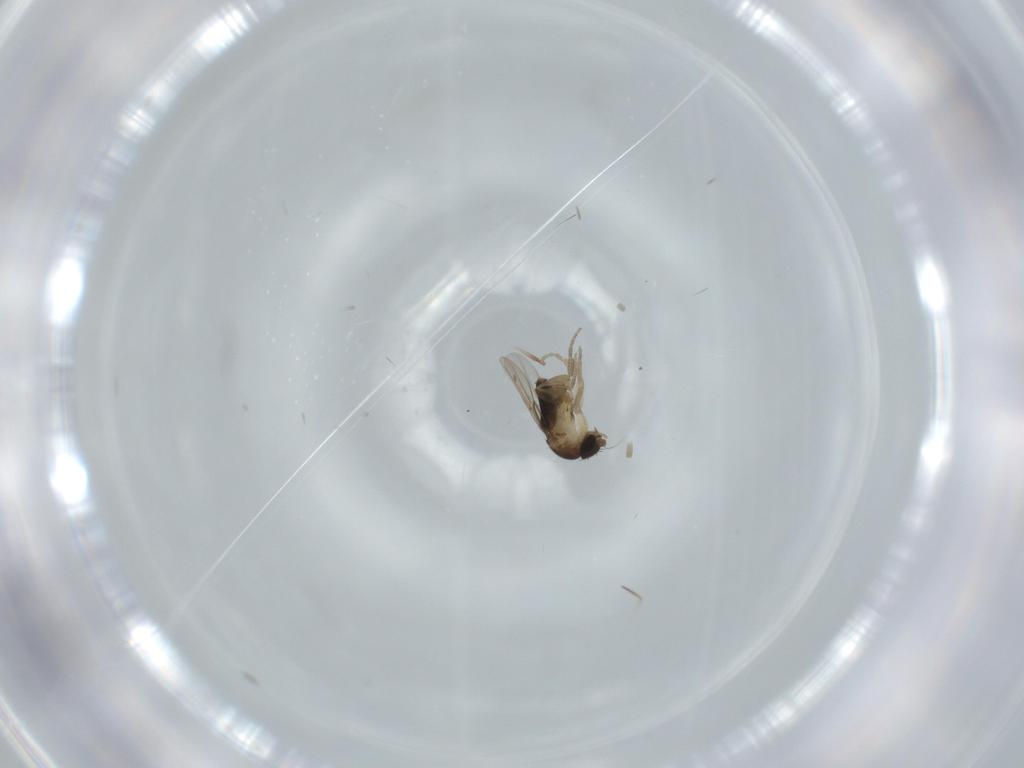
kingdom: Animalia
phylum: Arthropoda
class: Insecta
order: Diptera
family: Phoridae
